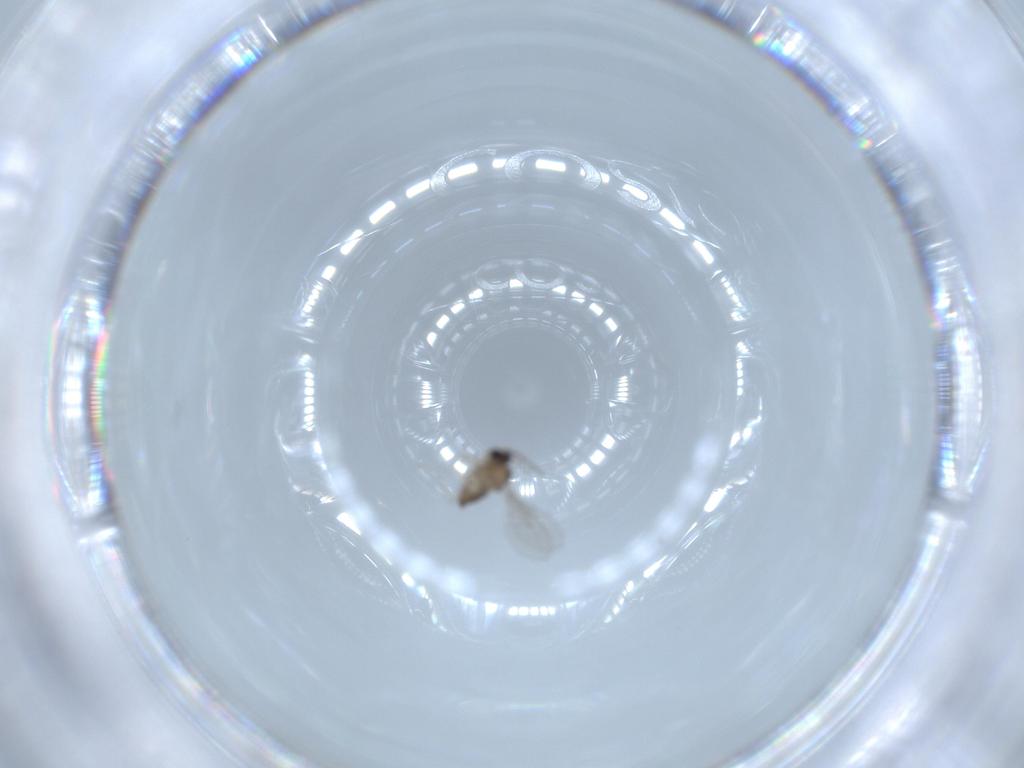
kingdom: Animalia
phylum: Arthropoda
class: Insecta
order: Diptera
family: Cecidomyiidae
